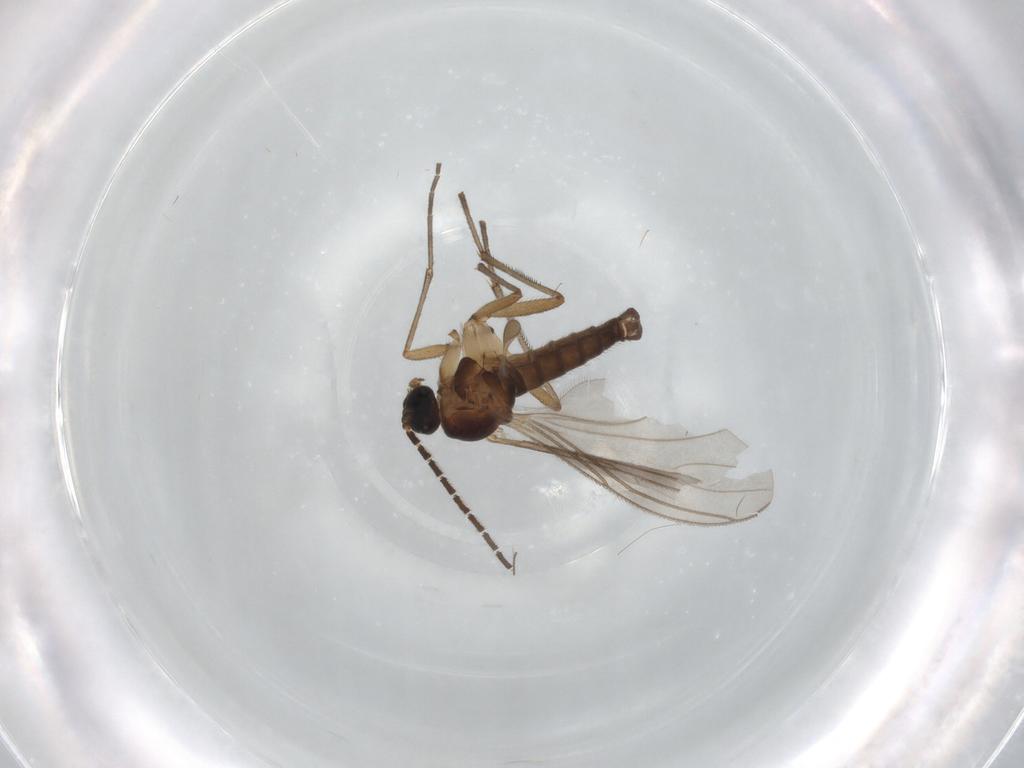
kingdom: Animalia
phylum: Arthropoda
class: Insecta
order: Diptera
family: Sciaridae
